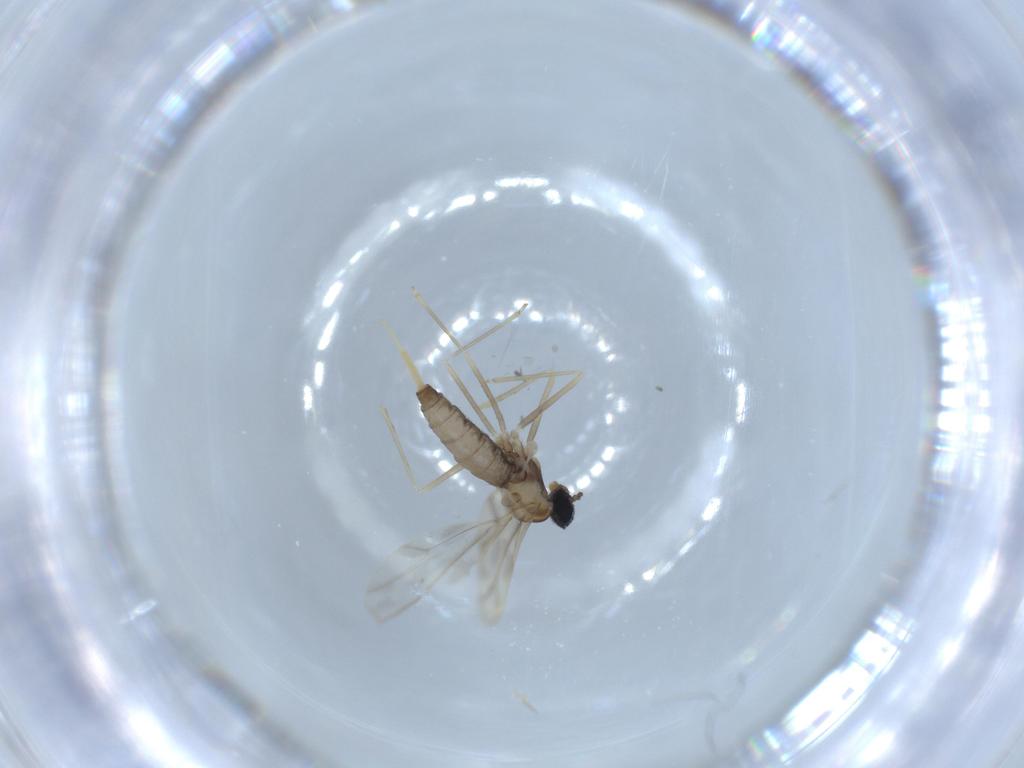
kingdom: Animalia
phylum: Arthropoda
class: Insecta
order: Diptera
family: Cecidomyiidae
